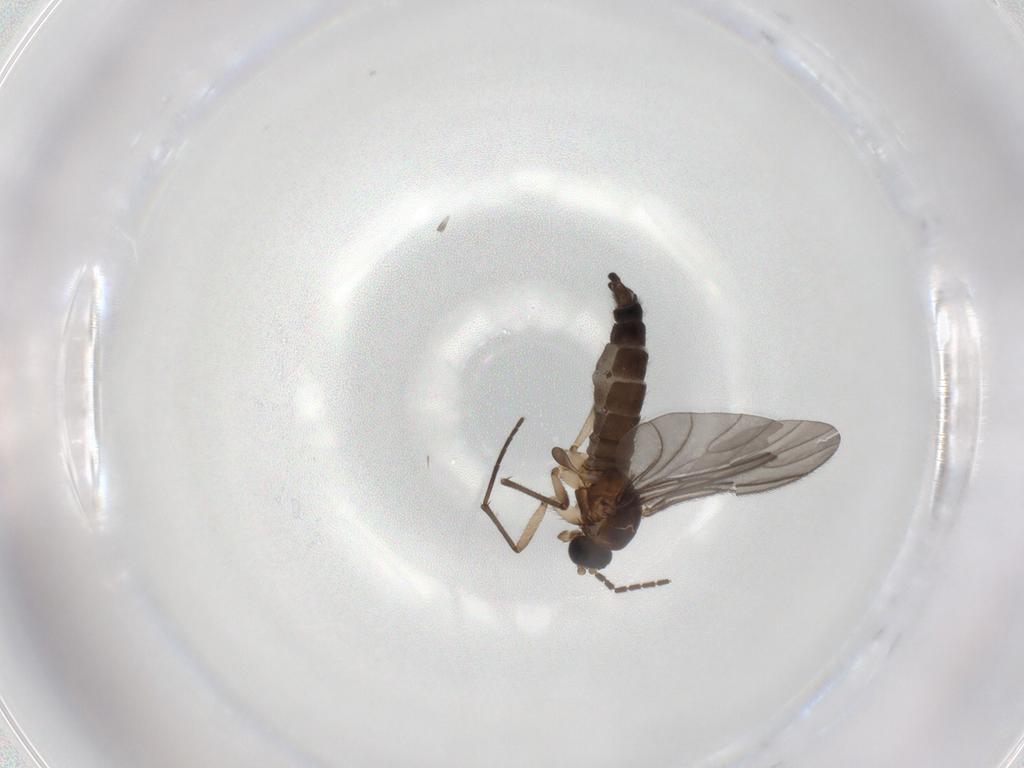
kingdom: Animalia
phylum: Arthropoda
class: Insecta
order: Diptera
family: Sciaridae
